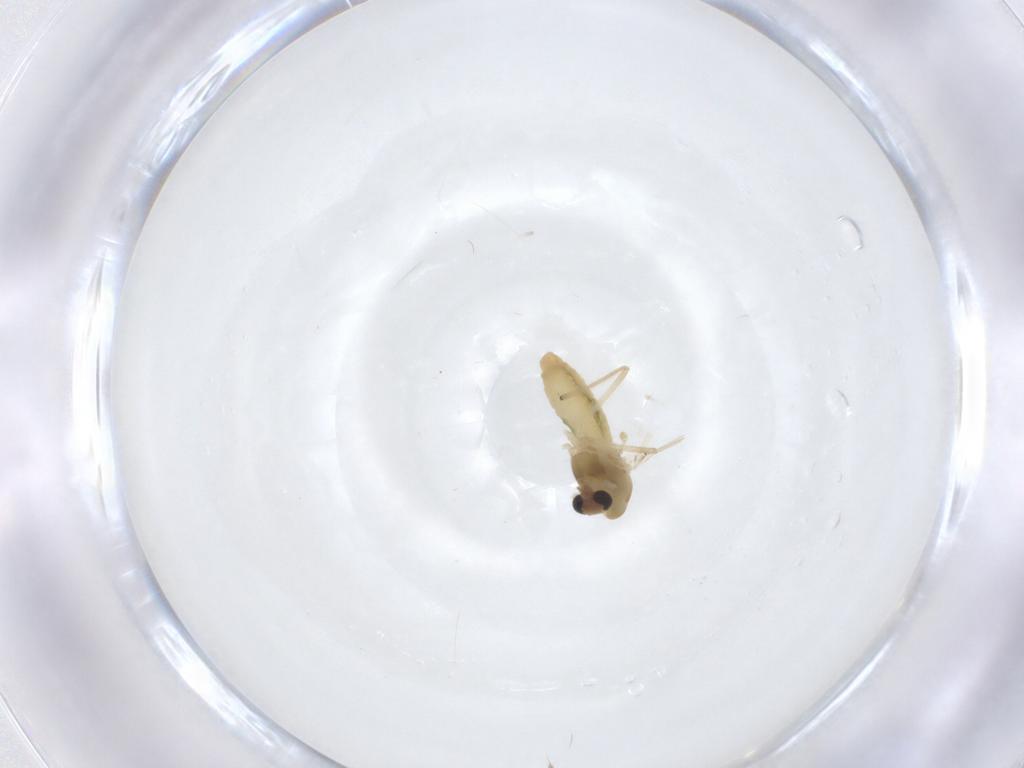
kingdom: Animalia
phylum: Arthropoda
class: Insecta
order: Diptera
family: Chironomidae
